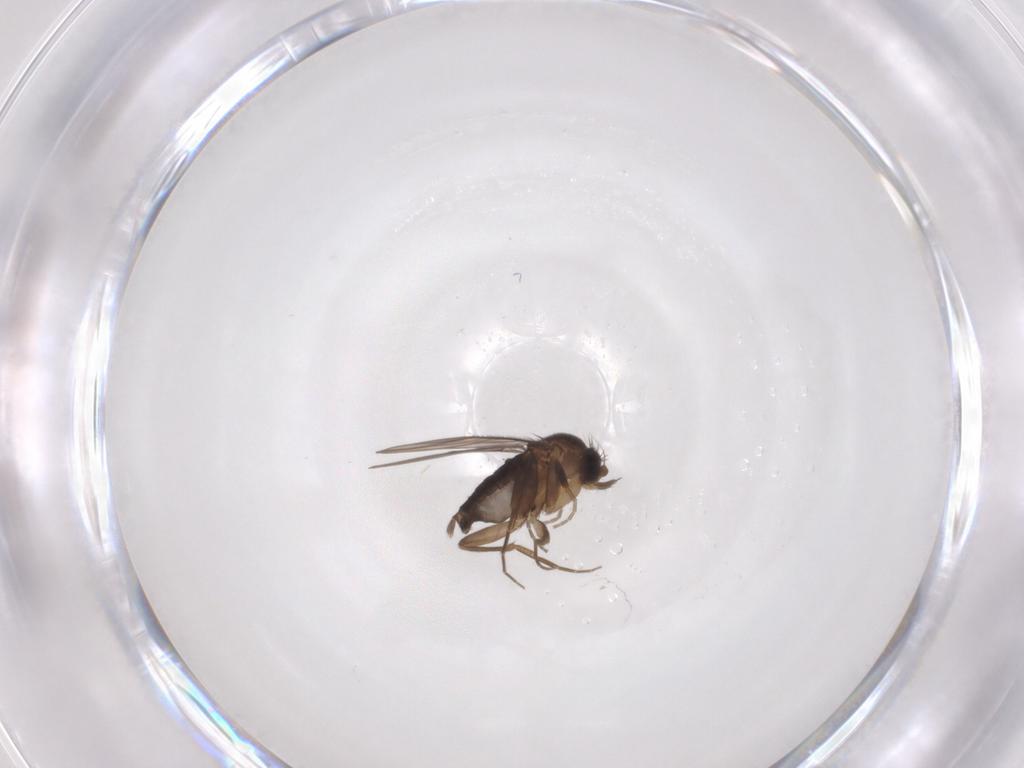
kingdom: Animalia
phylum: Arthropoda
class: Insecta
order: Diptera
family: Phoridae
